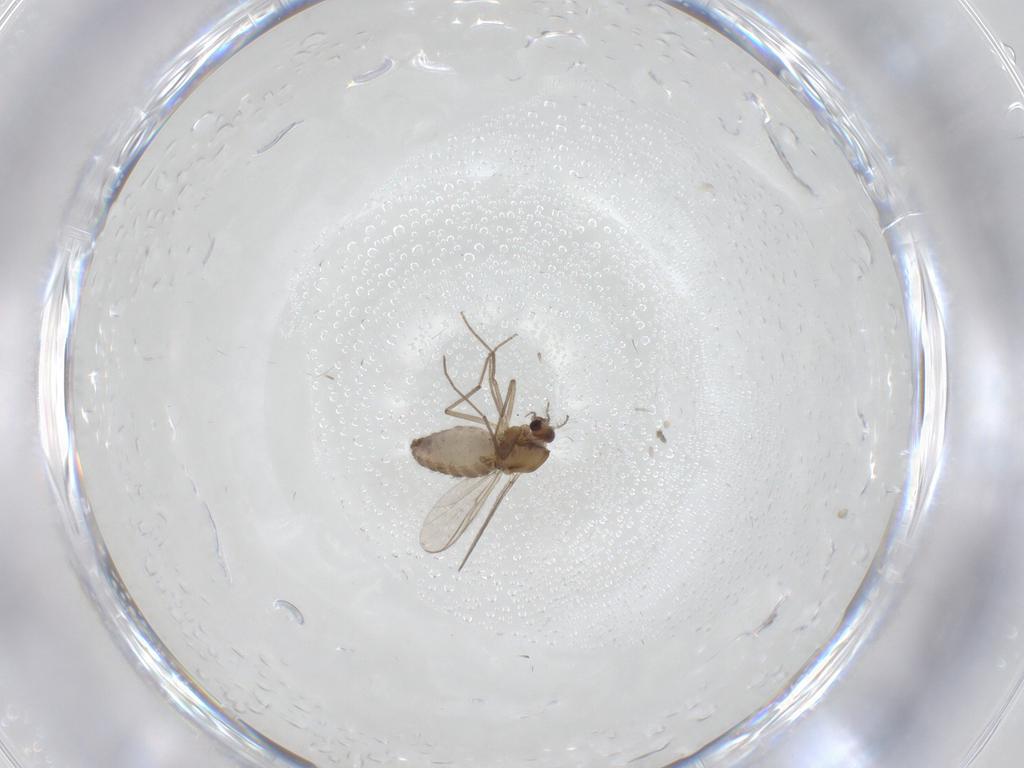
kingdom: Animalia
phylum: Arthropoda
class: Insecta
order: Diptera
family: Chironomidae
